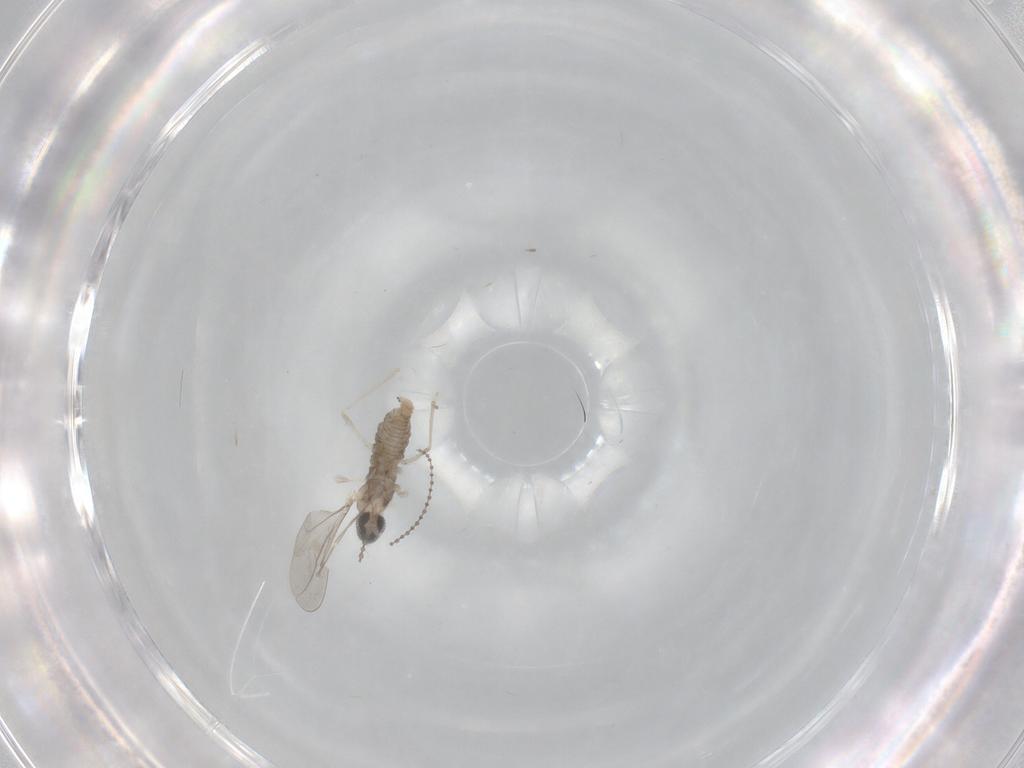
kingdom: Animalia
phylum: Arthropoda
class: Insecta
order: Diptera
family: Cecidomyiidae
